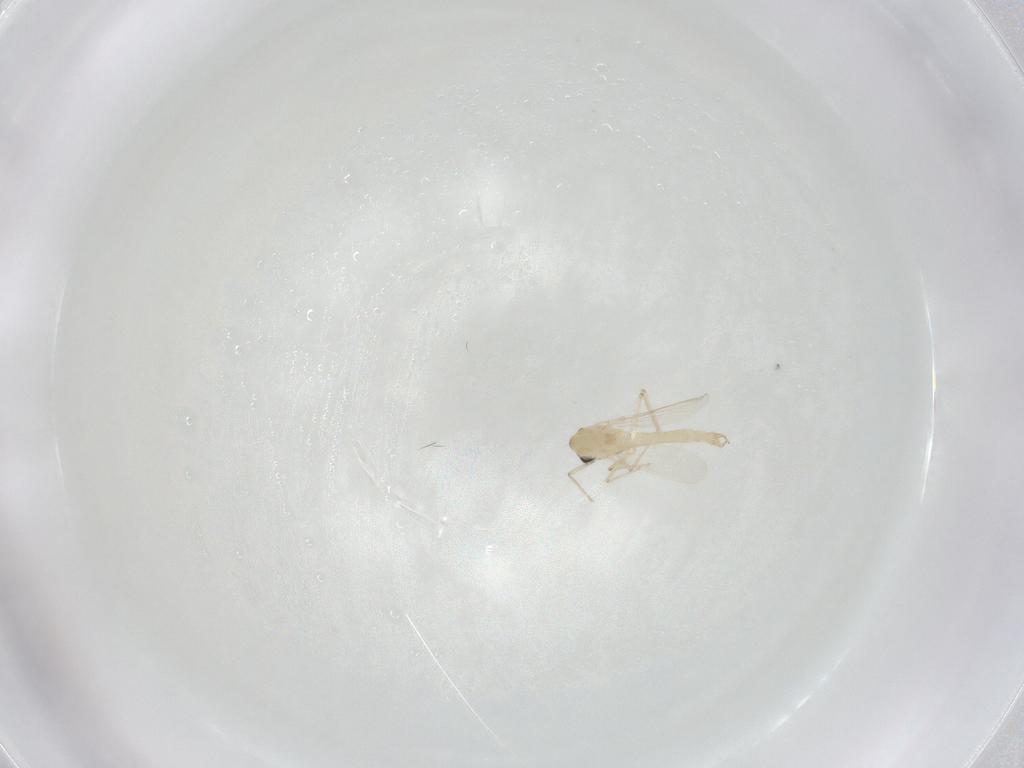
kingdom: Animalia
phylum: Arthropoda
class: Insecta
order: Diptera
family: Chironomidae
